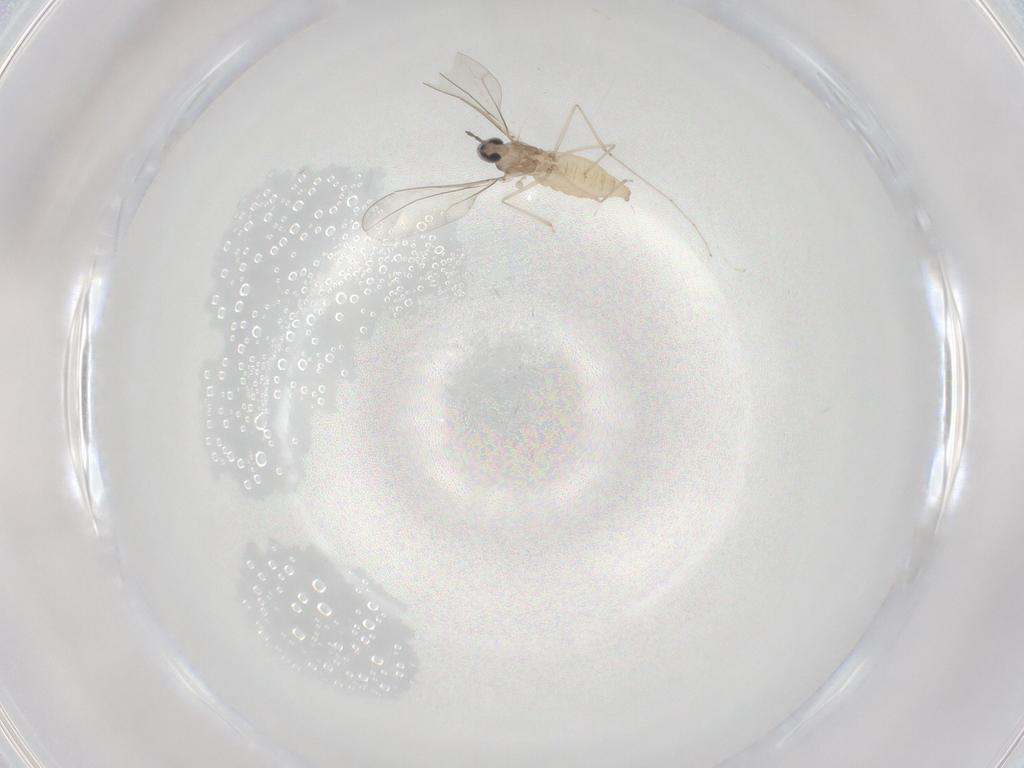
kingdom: Animalia
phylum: Arthropoda
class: Insecta
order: Diptera
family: Cecidomyiidae
